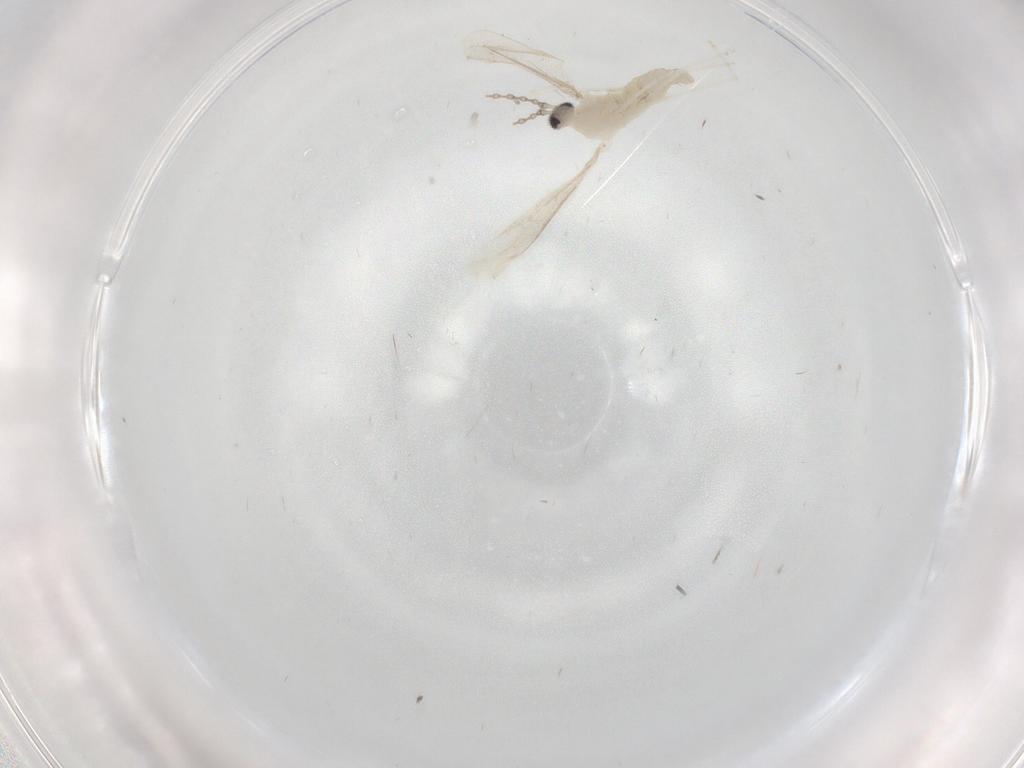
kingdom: Animalia
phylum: Arthropoda
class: Insecta
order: Diptera
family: Cecidomyiidae
